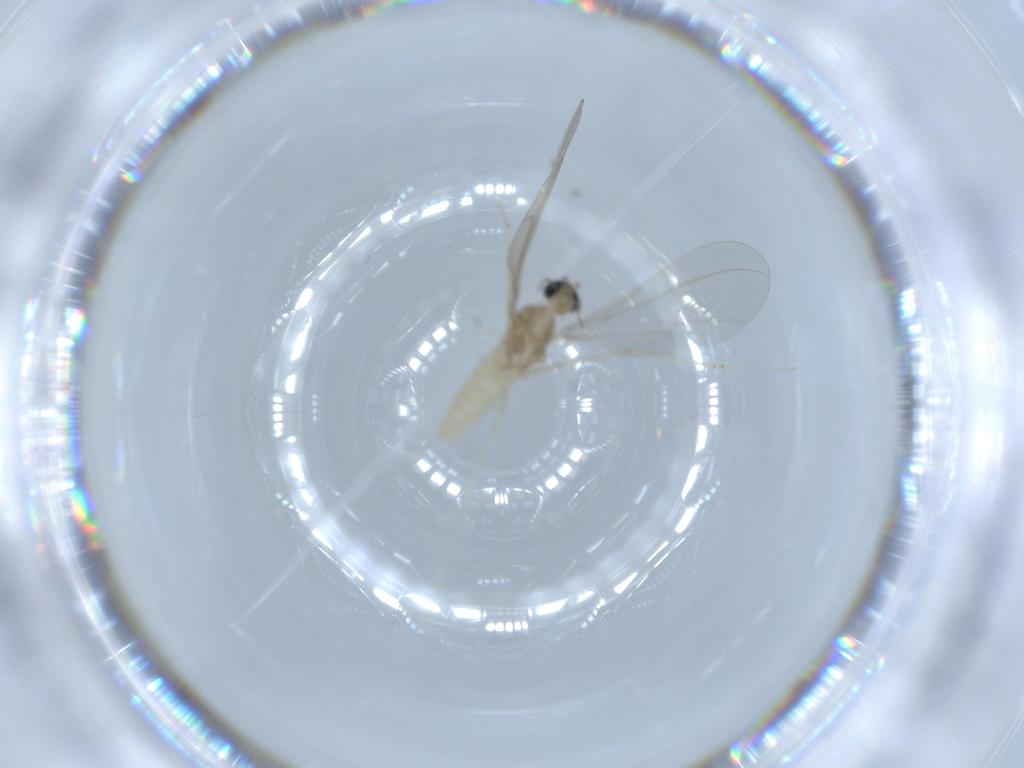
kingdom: Animalia
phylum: Arthropoda
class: Insecta
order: Diptera
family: Cecidomyiidae
